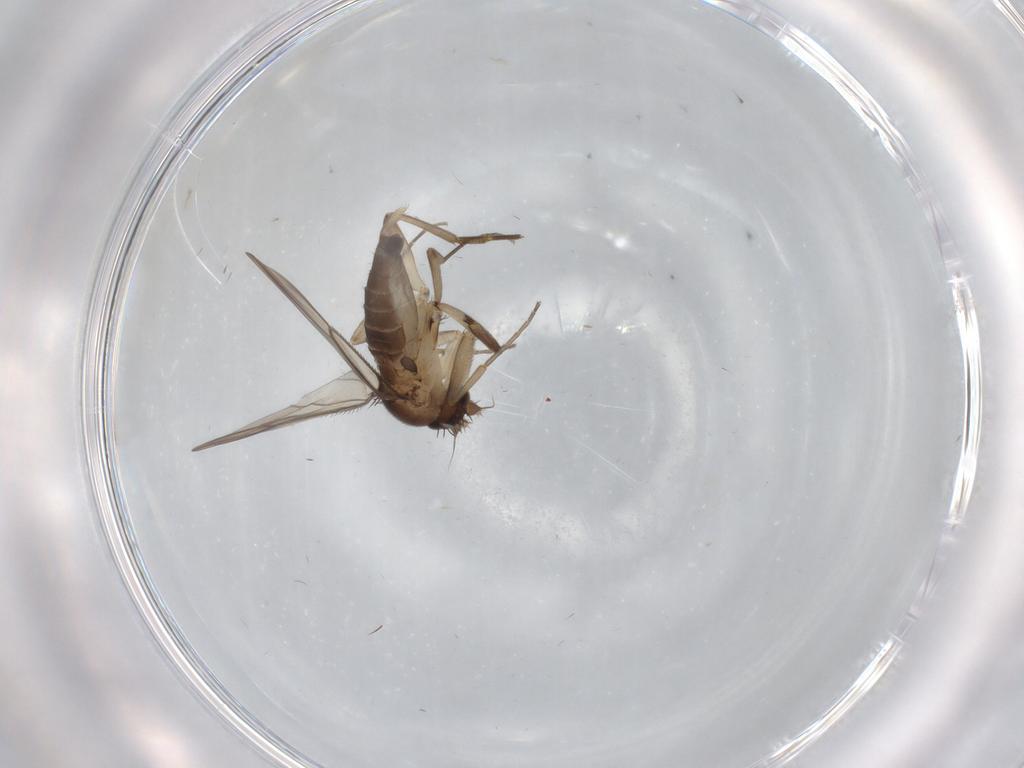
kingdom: Animalia
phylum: Arthropoda
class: Insecta
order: Diptera
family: Phoridae
